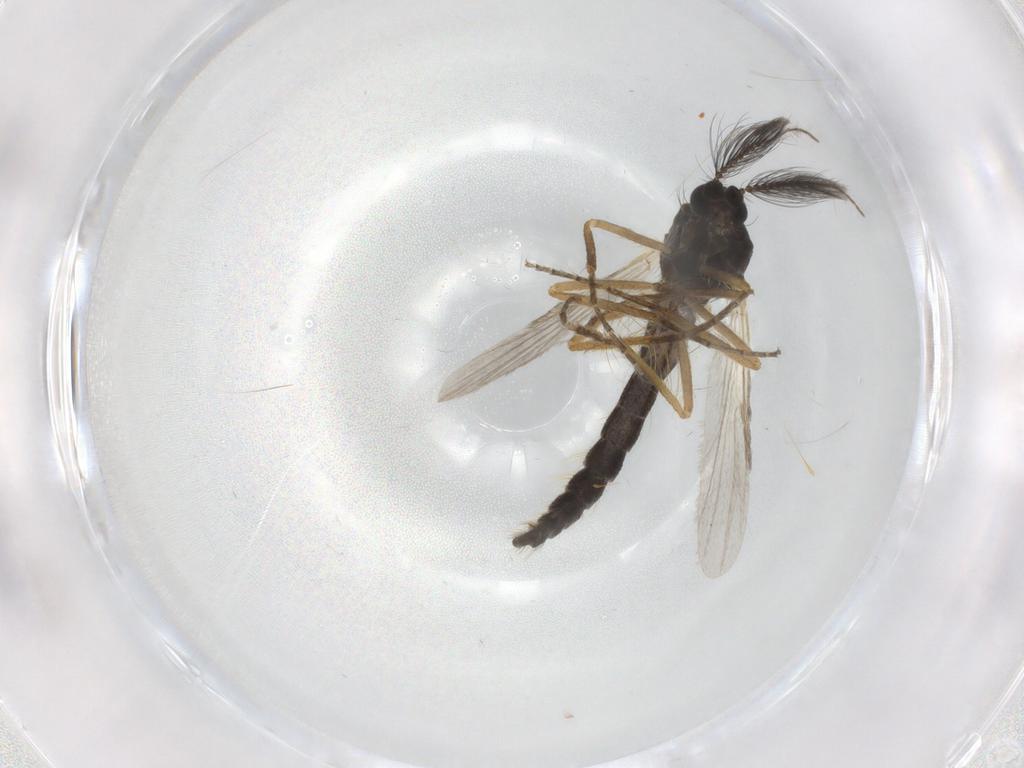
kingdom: Animalia
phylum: Arthropoda
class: Insecta
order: Diptera
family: Ceratopogonidae
